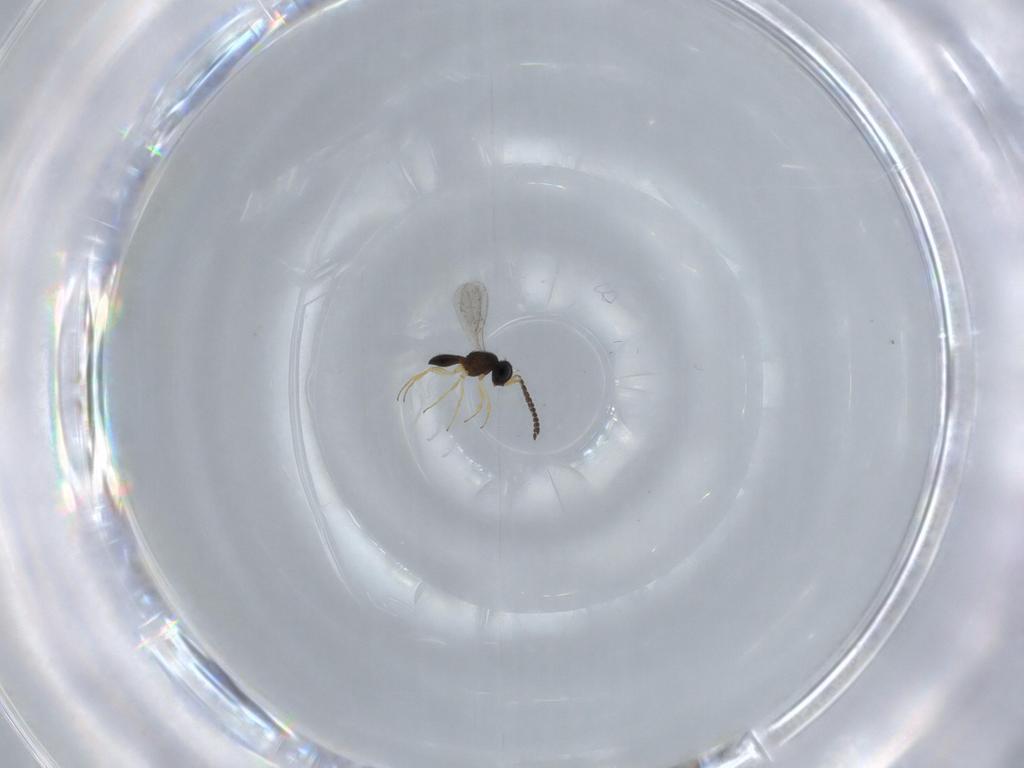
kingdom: Animalia
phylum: Arthropoda
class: Insecta
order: Hymenoptera
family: Scelionidae
